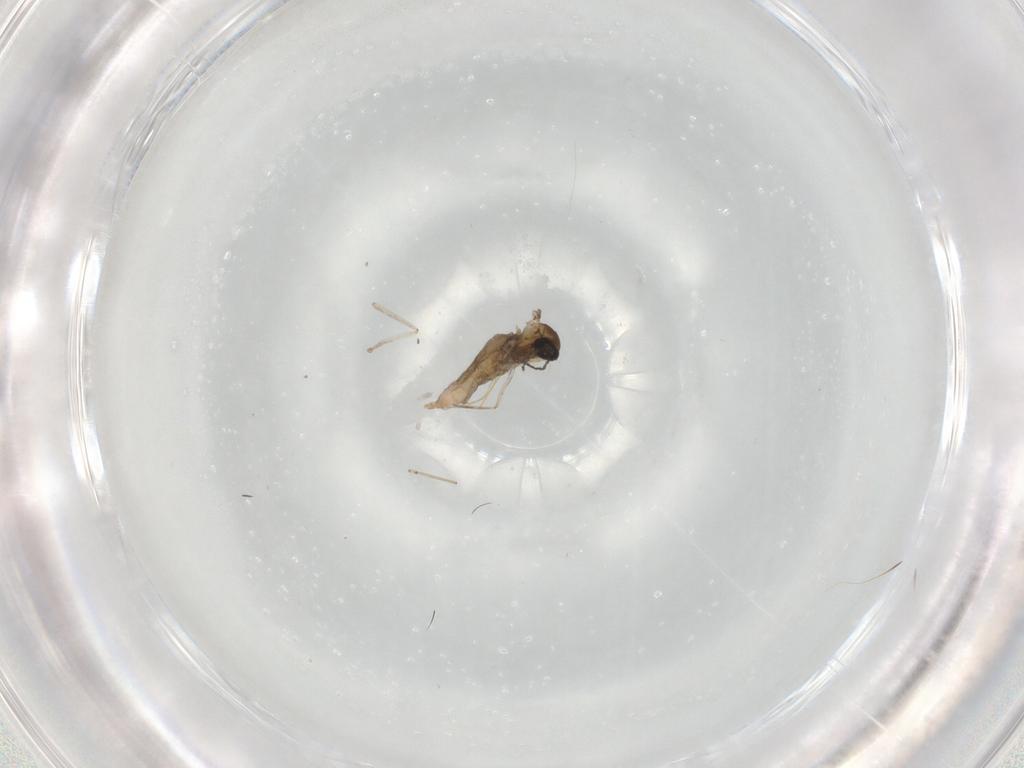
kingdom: Animalia
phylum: Arthropoda
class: Insecta
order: Diptera
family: Cecidomyiidae
